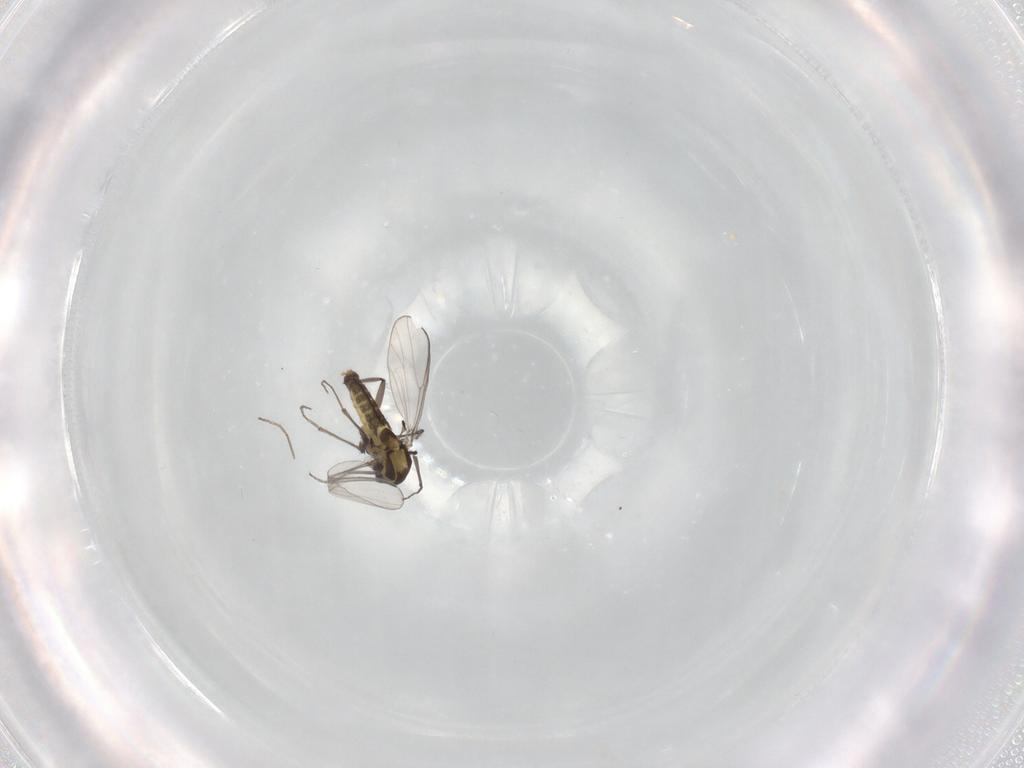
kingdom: Animalia
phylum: Arthropoda
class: Insecta
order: Diptera
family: Chironomidae
